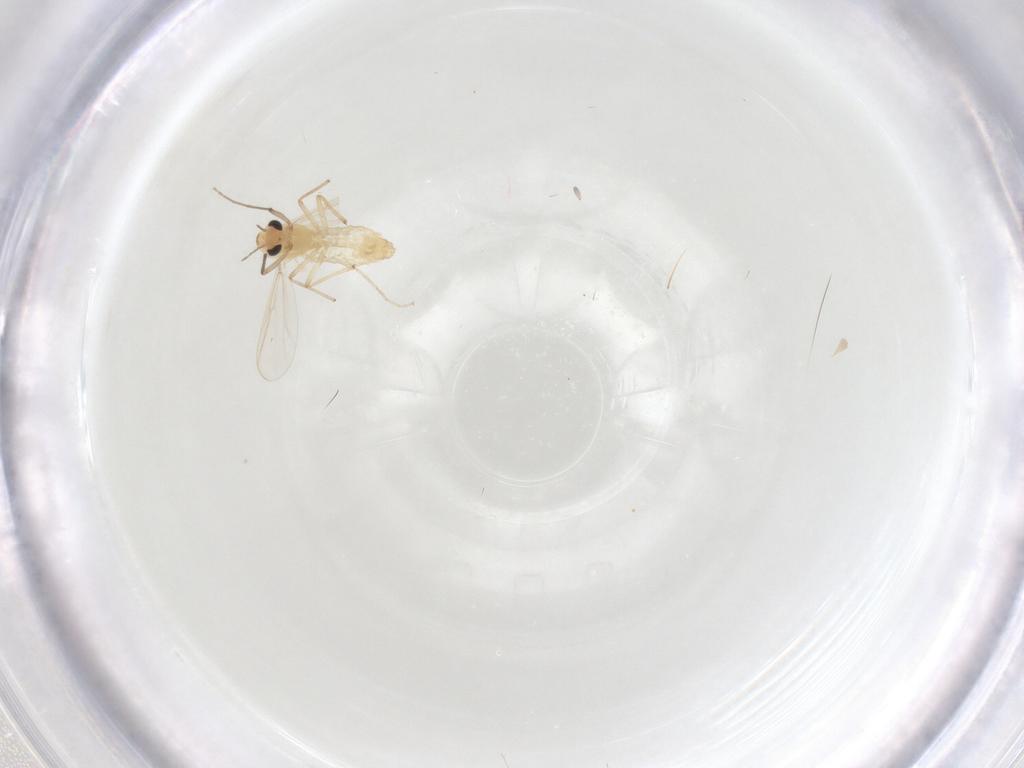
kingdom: Animalia
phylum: Arthropoda
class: Insecta
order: Diptera
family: Chironomidae
